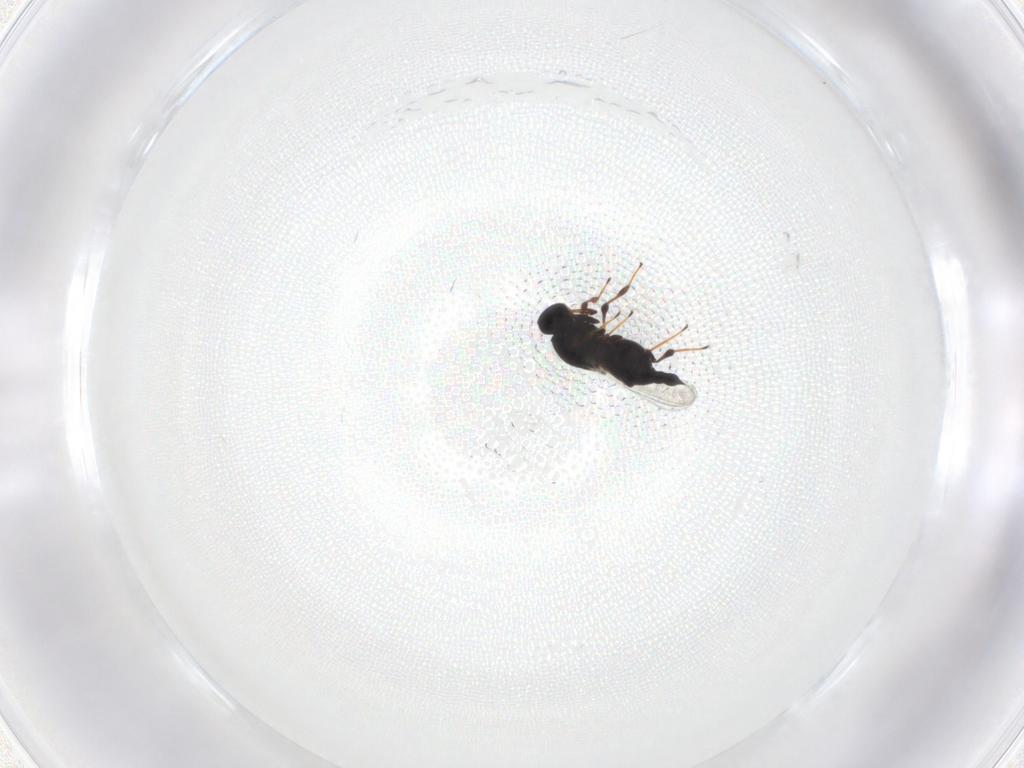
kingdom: Animalia
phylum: Arthropoda
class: Insecta
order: Hymenoptera
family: Platygastridae
